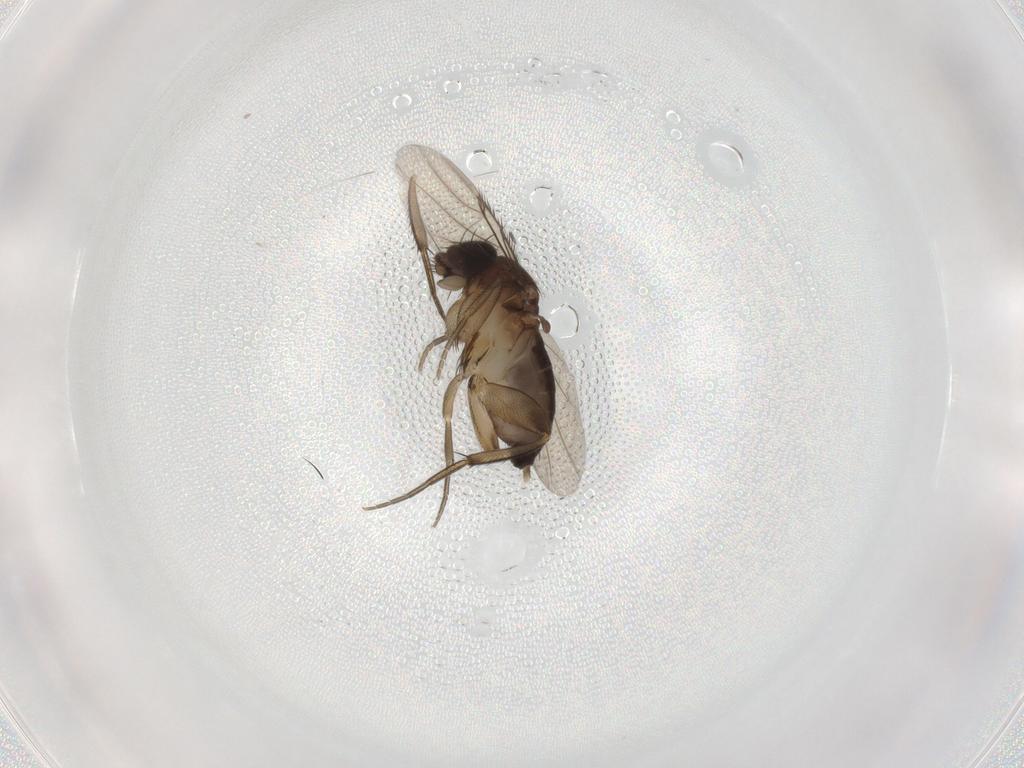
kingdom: Animalia
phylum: Arthropoda
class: Insecta
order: Diptera
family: Phoridae
